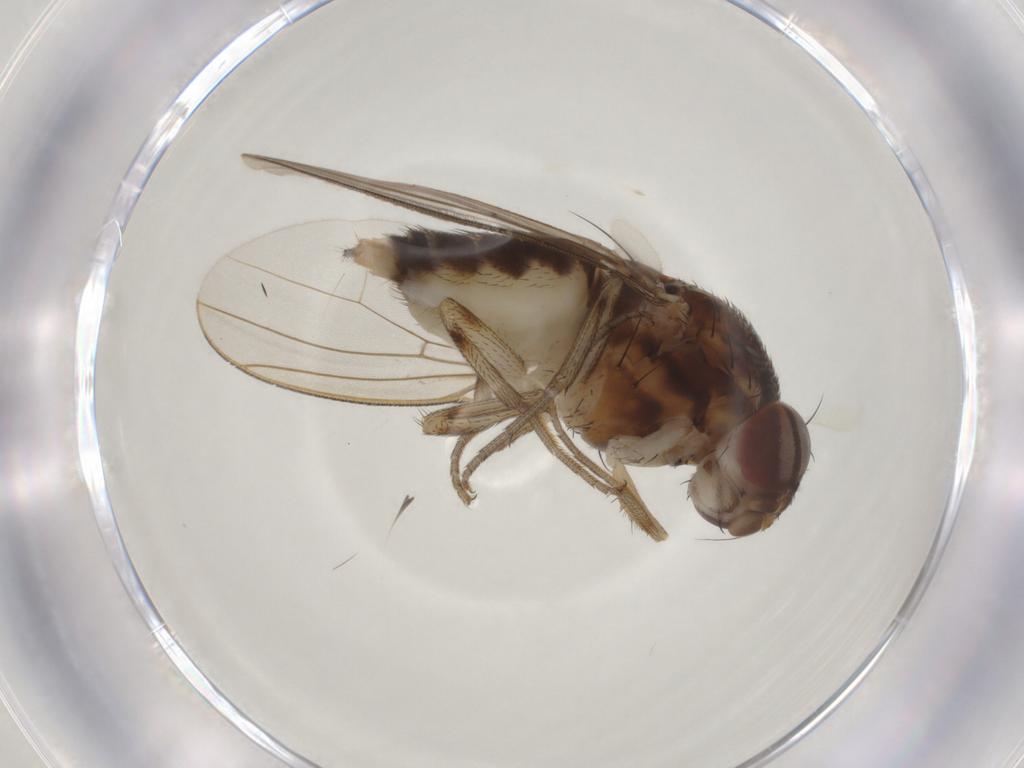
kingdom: Animalia
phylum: Arthropoda
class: Insecta
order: Diptera
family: Drosophilidae
